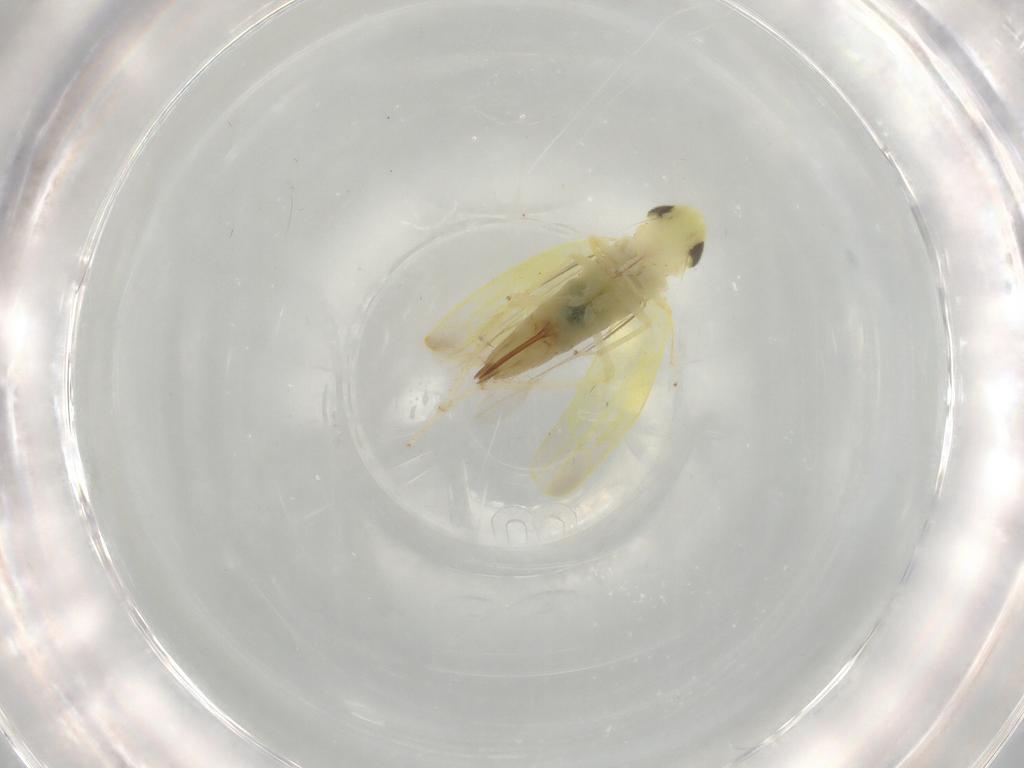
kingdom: Animalia
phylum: Arthropoda
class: Insecta
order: Hemiptera
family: Cicadellidae
